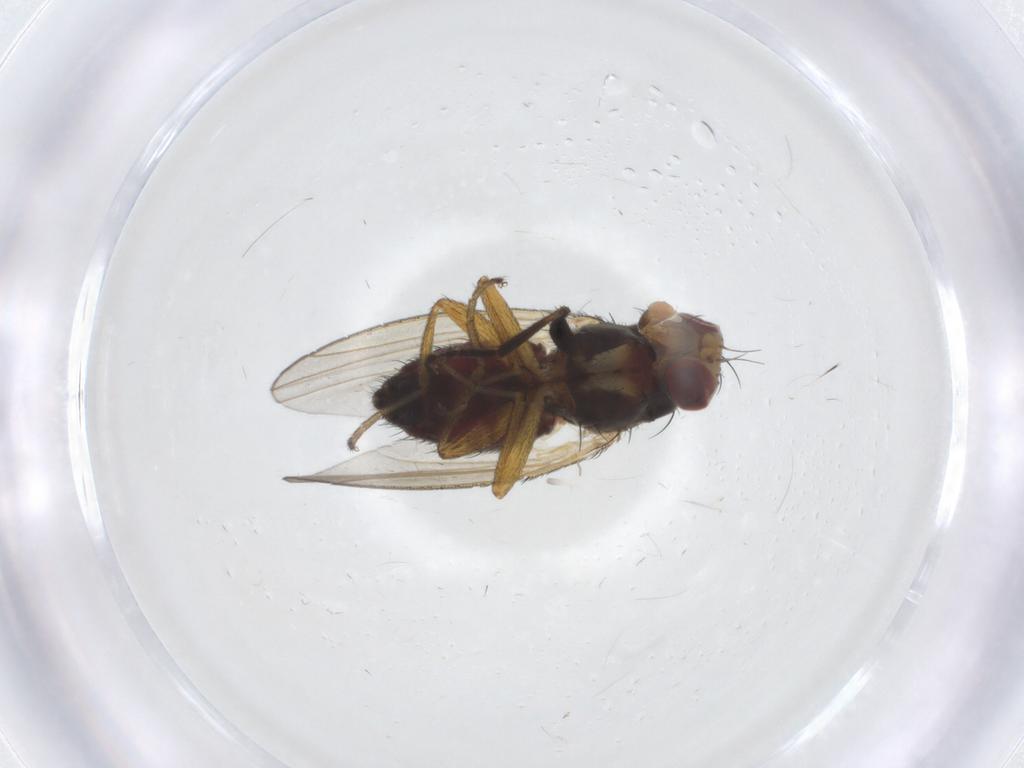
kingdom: Animalia
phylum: Arthropoda
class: Insecta
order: Diptera
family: Heleomyzidae
